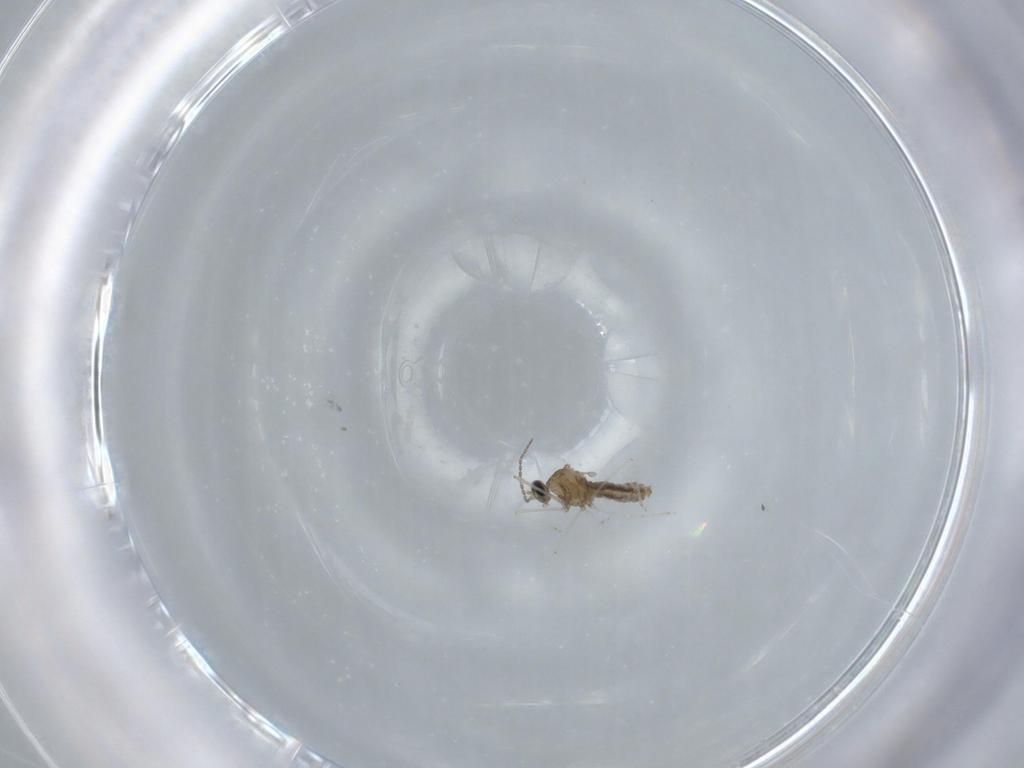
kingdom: Animalia
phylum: Arthropoda
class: Insecta
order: Diptera
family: Cecidomyiidae
